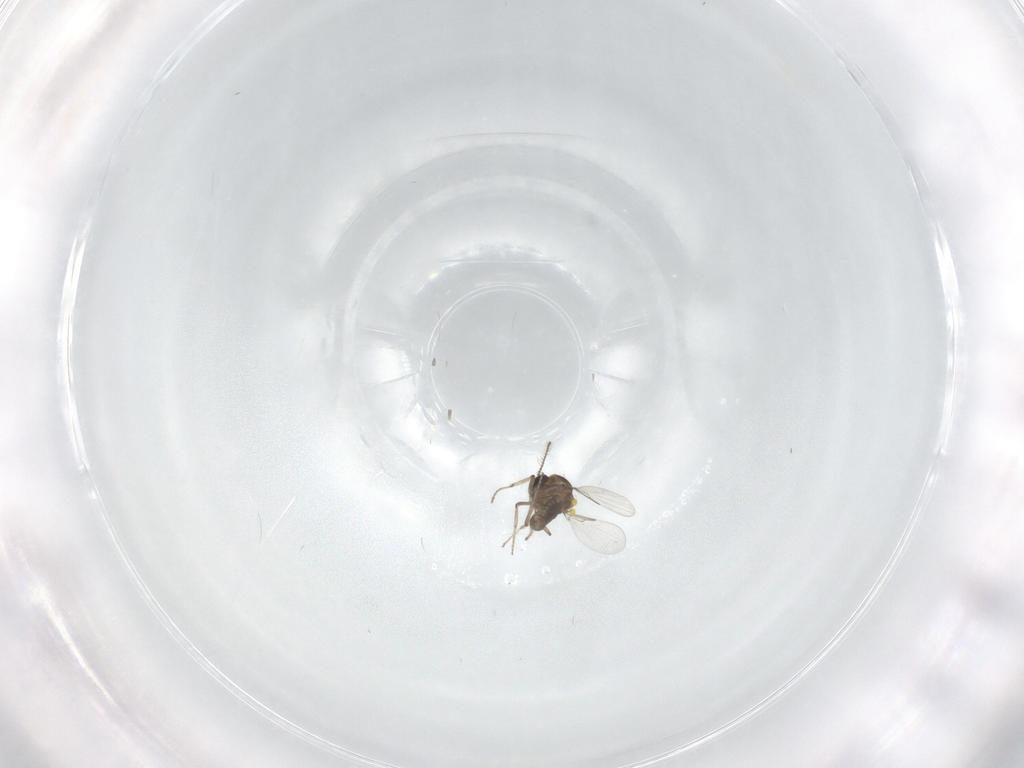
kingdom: Animalia
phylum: Arthropoda
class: Insecta
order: Diptera
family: Ceratopogonidae
